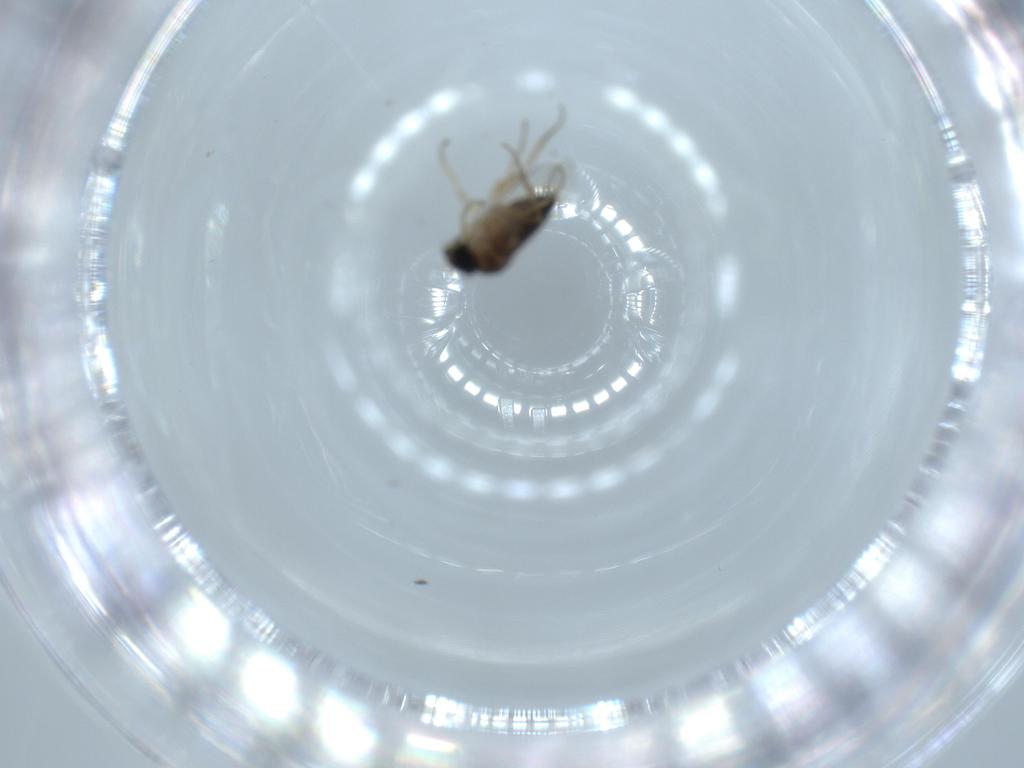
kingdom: Animalia
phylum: Arthropoda
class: Insecta
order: Diptera
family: Phoridae
